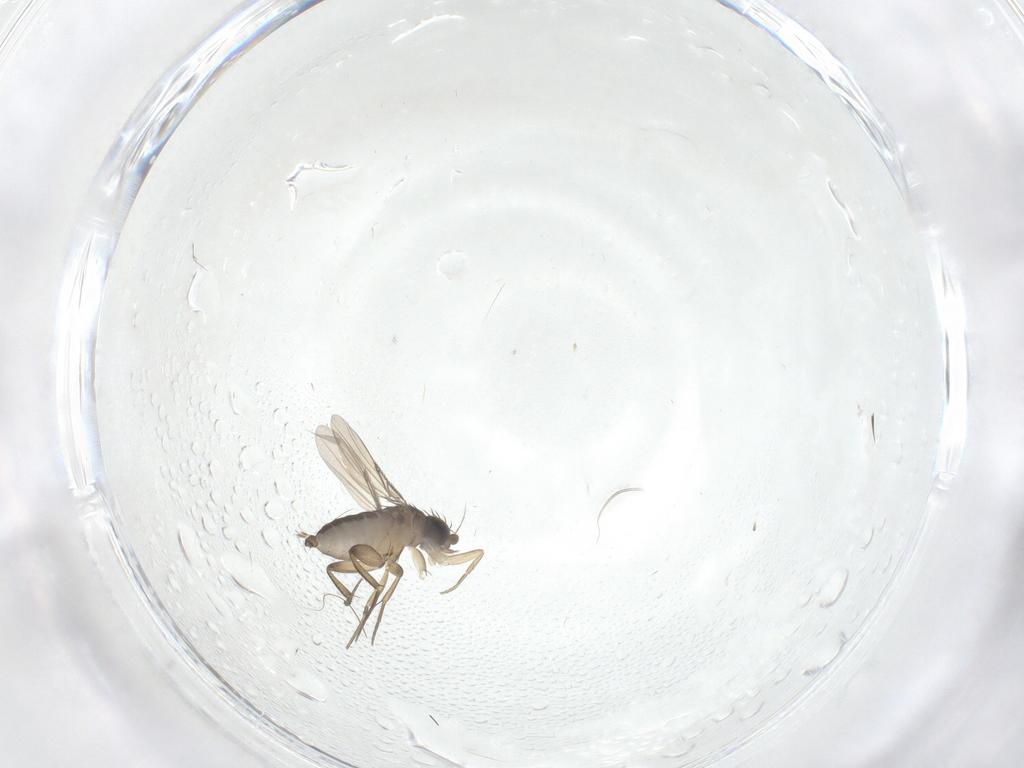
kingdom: Animalia
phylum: Arthropoda
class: Insecta
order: Diptera
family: Phoridae
